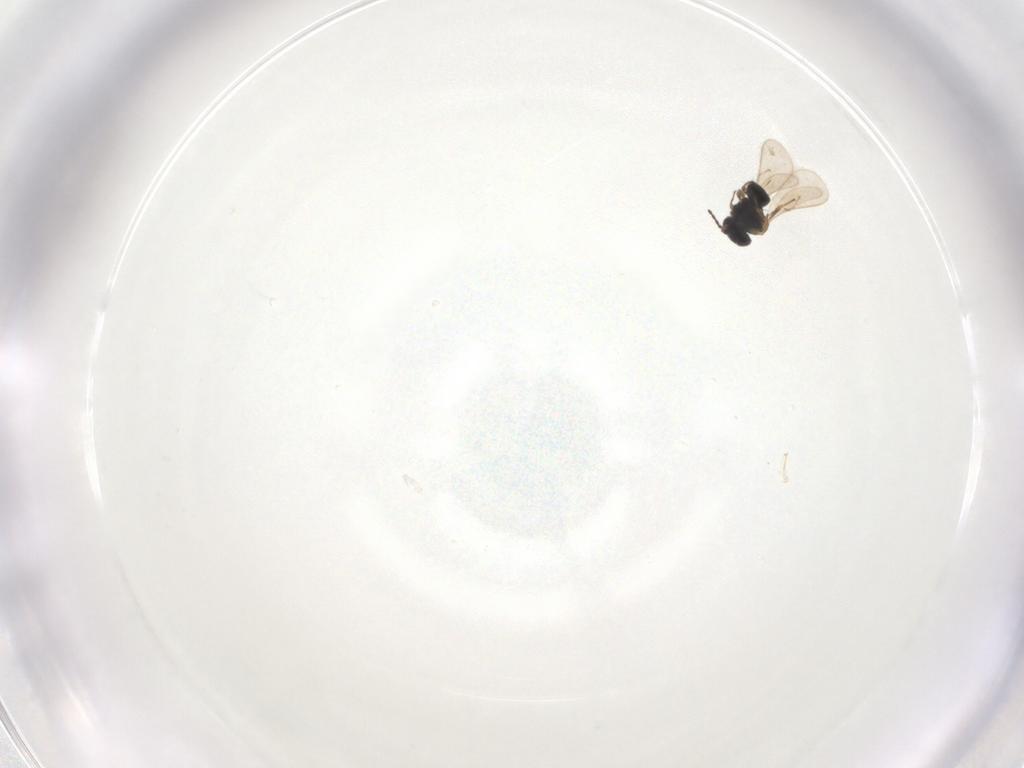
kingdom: Animalia
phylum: Arthropoda
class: Insecta
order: Hymenoptera
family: Scelionidae
